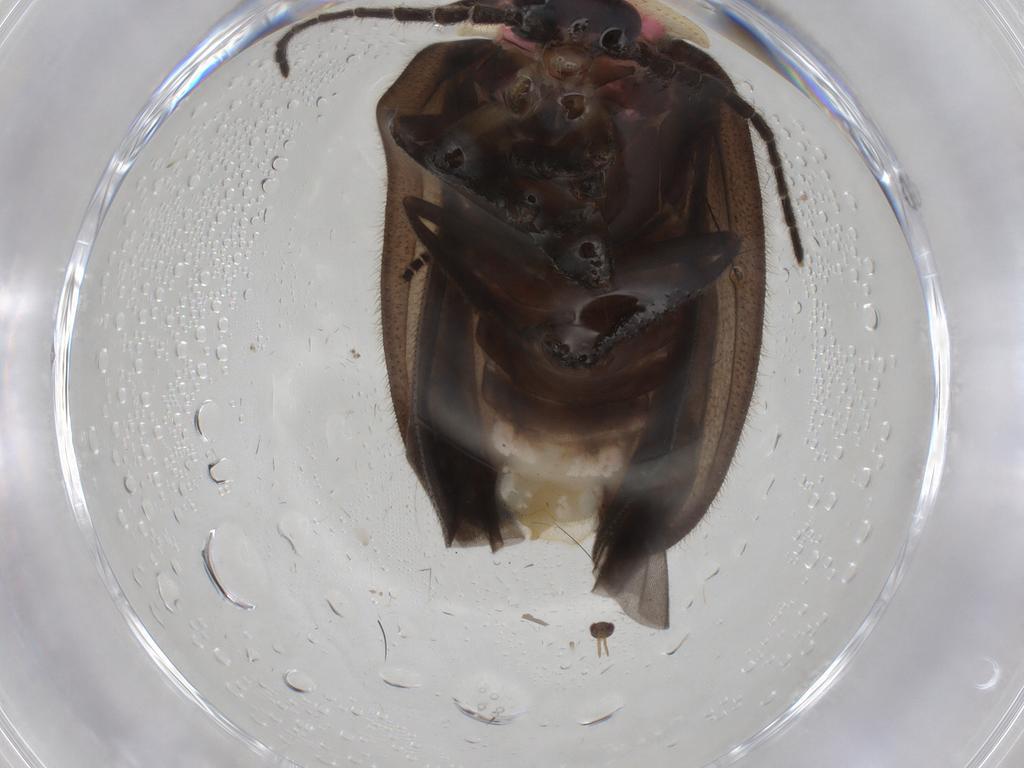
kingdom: Animalia
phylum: Arthropoda
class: Insecta
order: Coleoptera
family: Lampyridae
